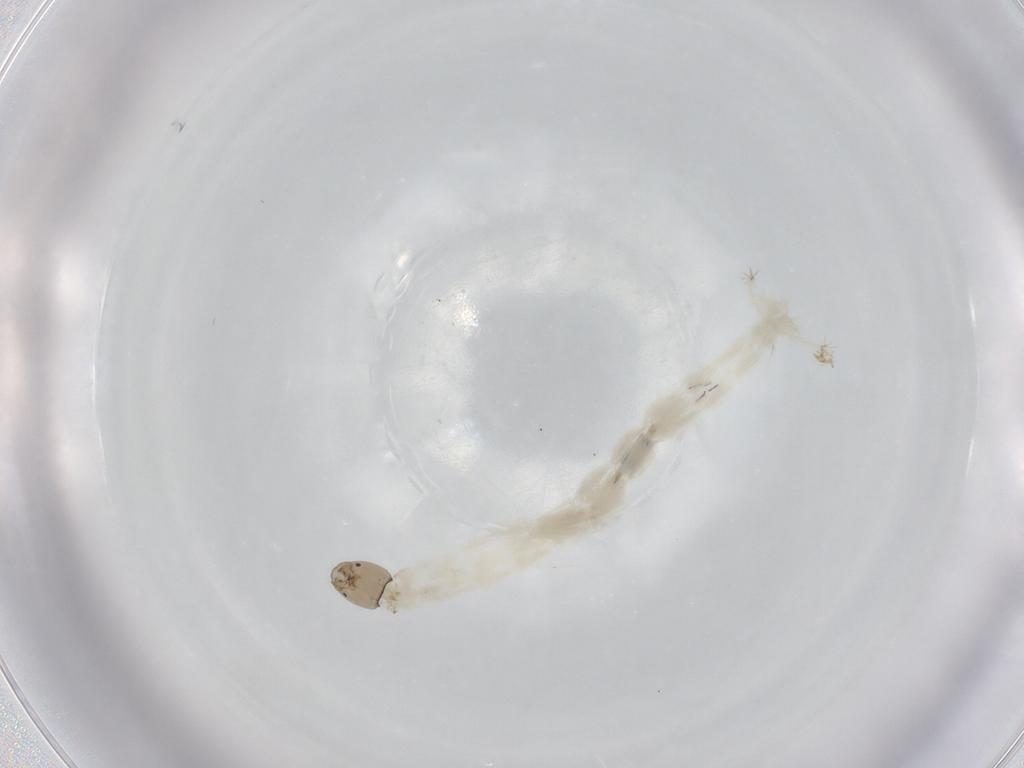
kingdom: Animalia
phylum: Arthropoda
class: Insecta
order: Diptera
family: Chironomidae
